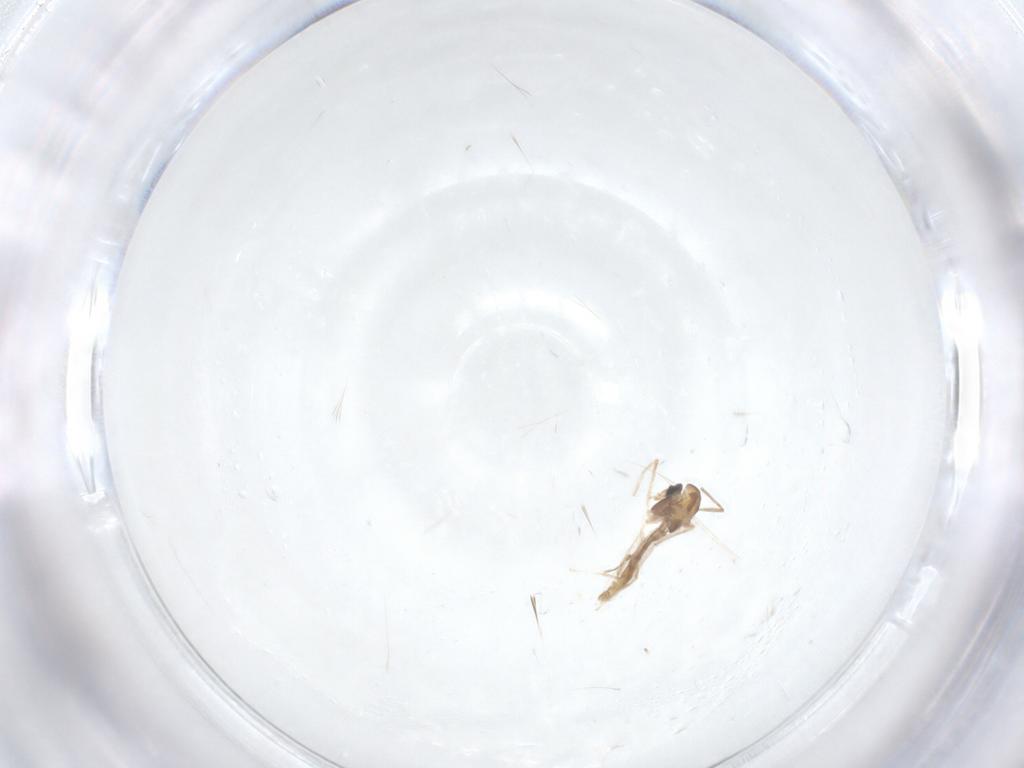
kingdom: Animalia
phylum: Arthropoda
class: Insecta
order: Diptera
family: Chironomidae
